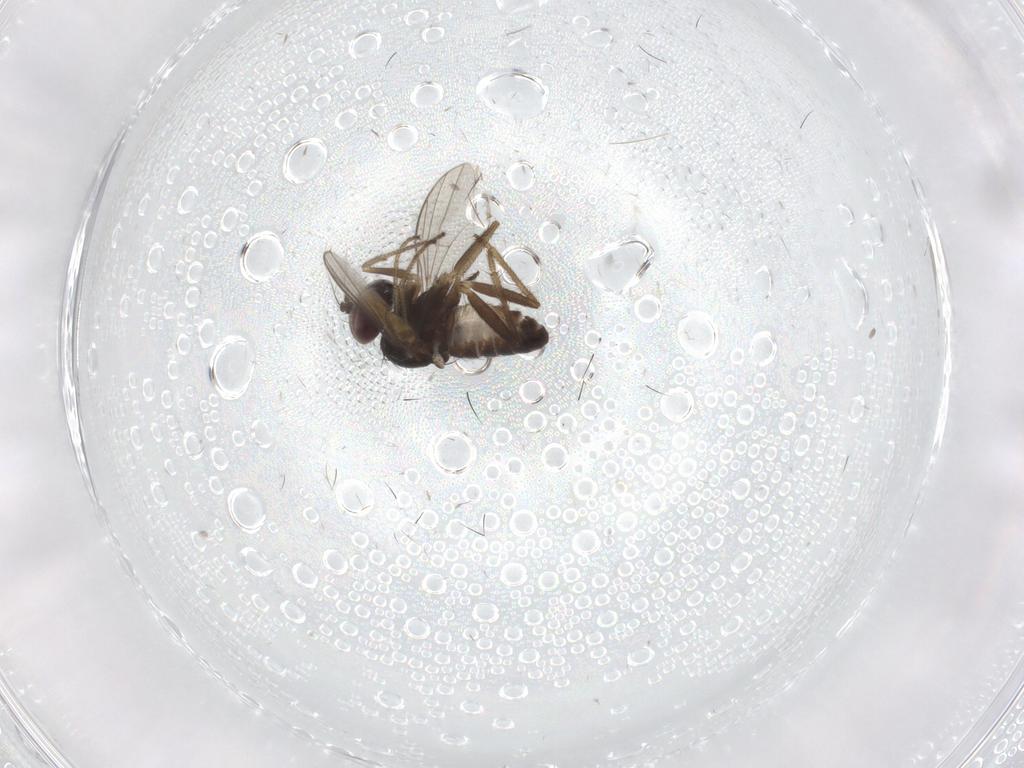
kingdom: Animalia
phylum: Arthropoda
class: Insecta
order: Diptera
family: Dolichopodidae
